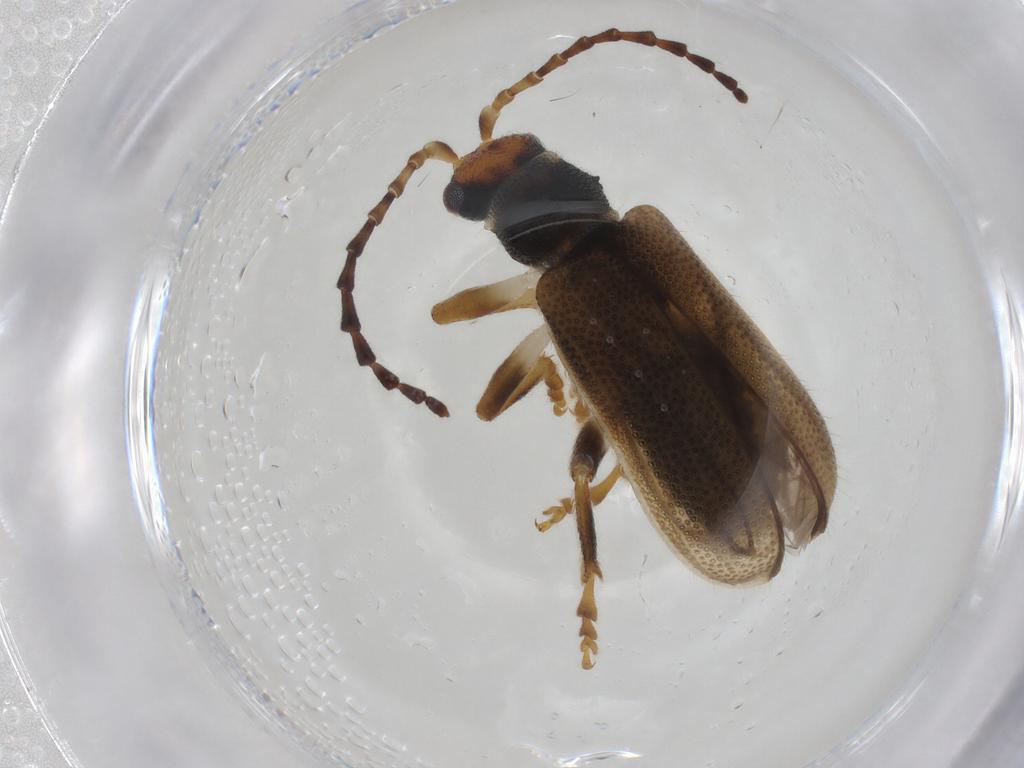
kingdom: Animalia
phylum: Arthropoda
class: Insecta
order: Coleoptera
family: Chrysomelidae
